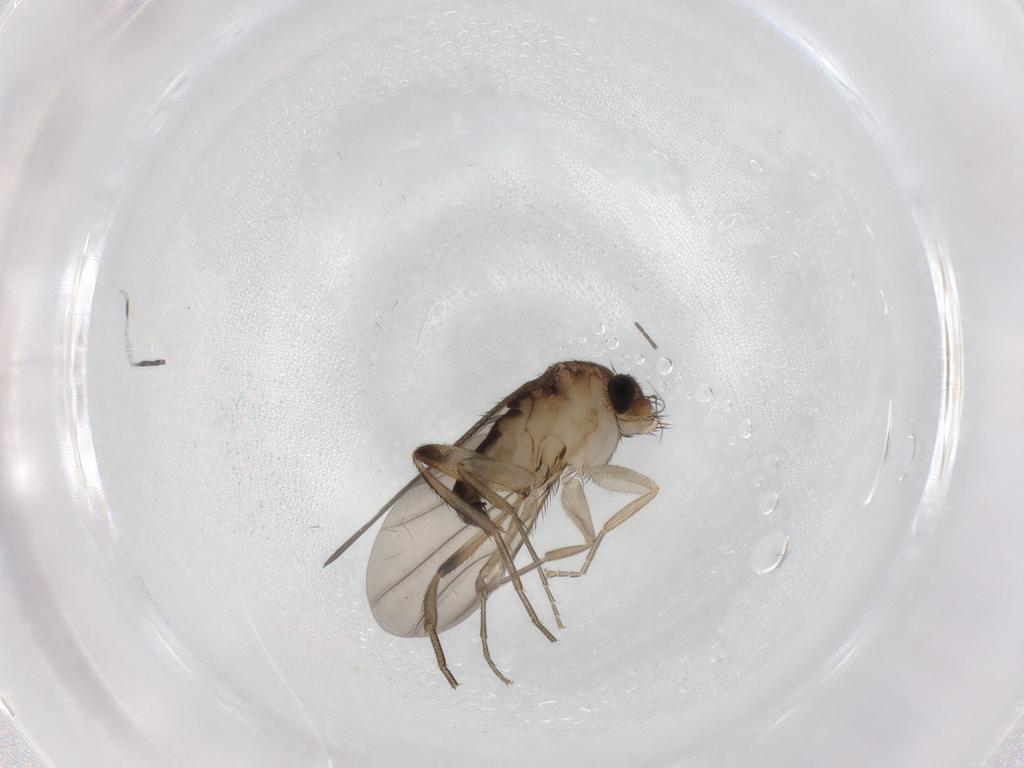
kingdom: Animalia
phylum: Arthropoda
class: Insecta
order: Diptera
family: Phoridae
